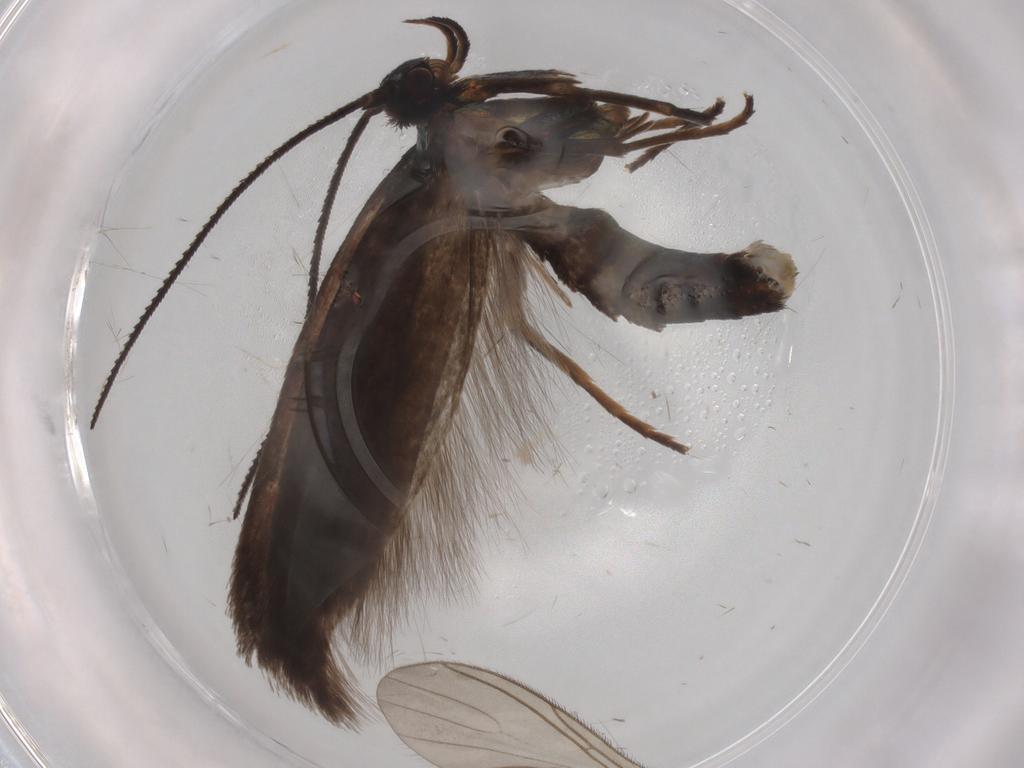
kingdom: Animalia
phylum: Arthropoda
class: Insecta
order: Lepidoptera
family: Argyresthiidae
